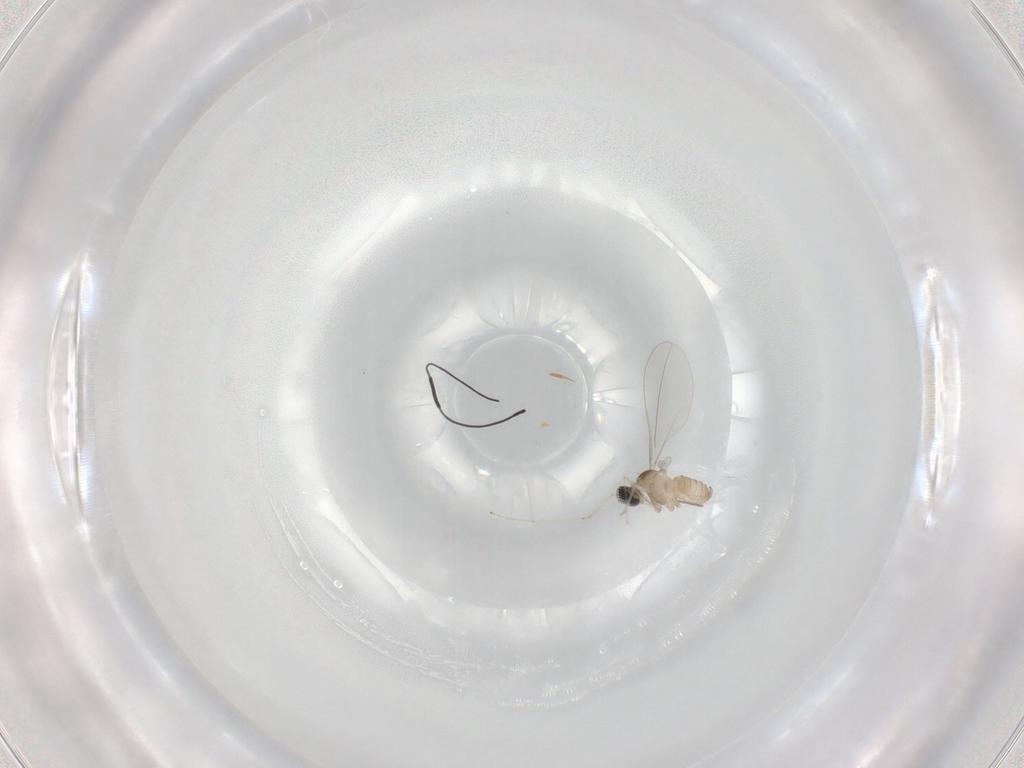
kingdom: Animalia
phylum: Arthropoda
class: Insecta
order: Diptera
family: Cecidomyiidae
